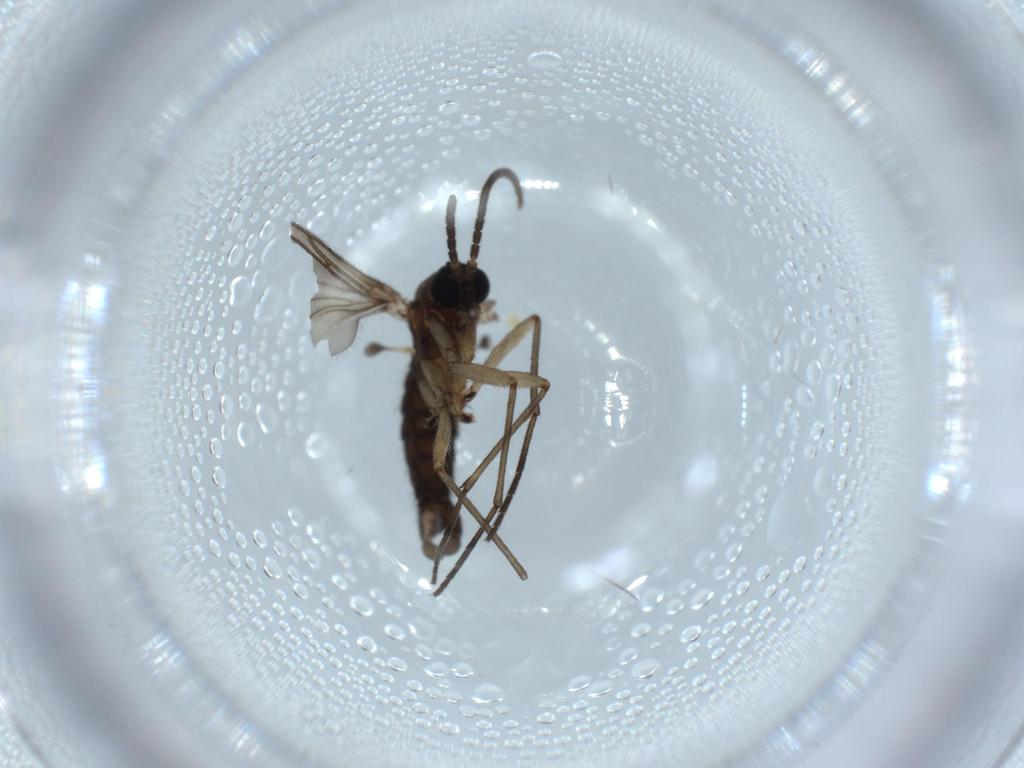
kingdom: Animalia
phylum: Arthropoda
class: Insecta
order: Diptera
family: Sciaridae
